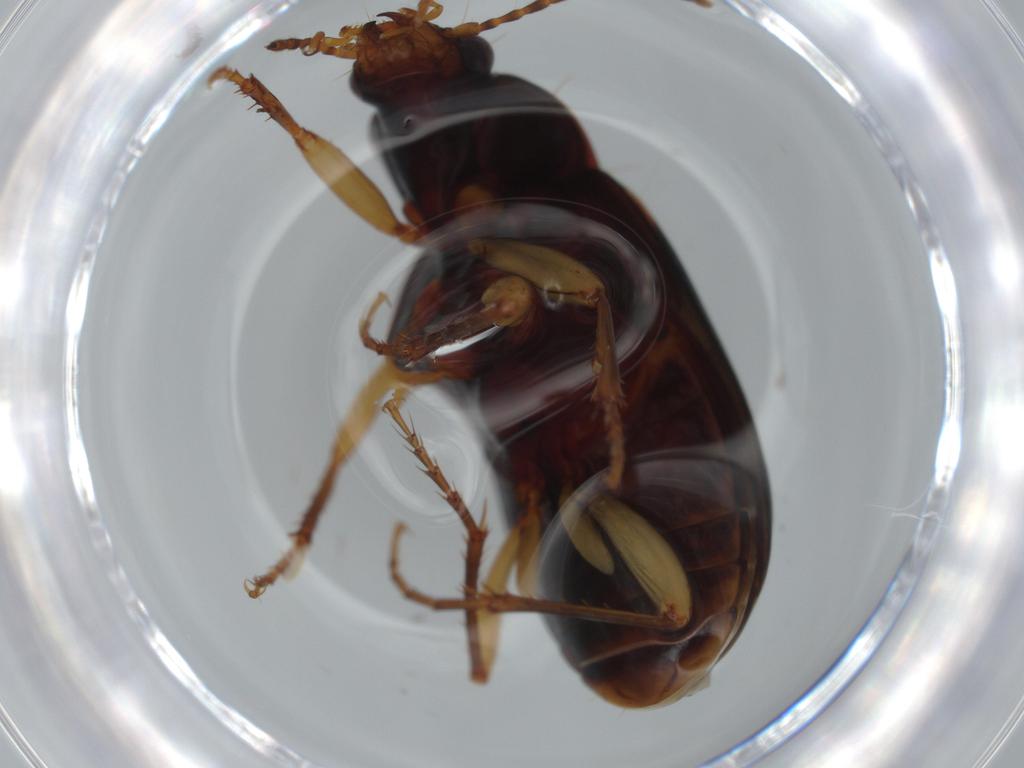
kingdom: Animalia
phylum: Arthropoda
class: Insecta
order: Coleoptera
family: Carabidae
